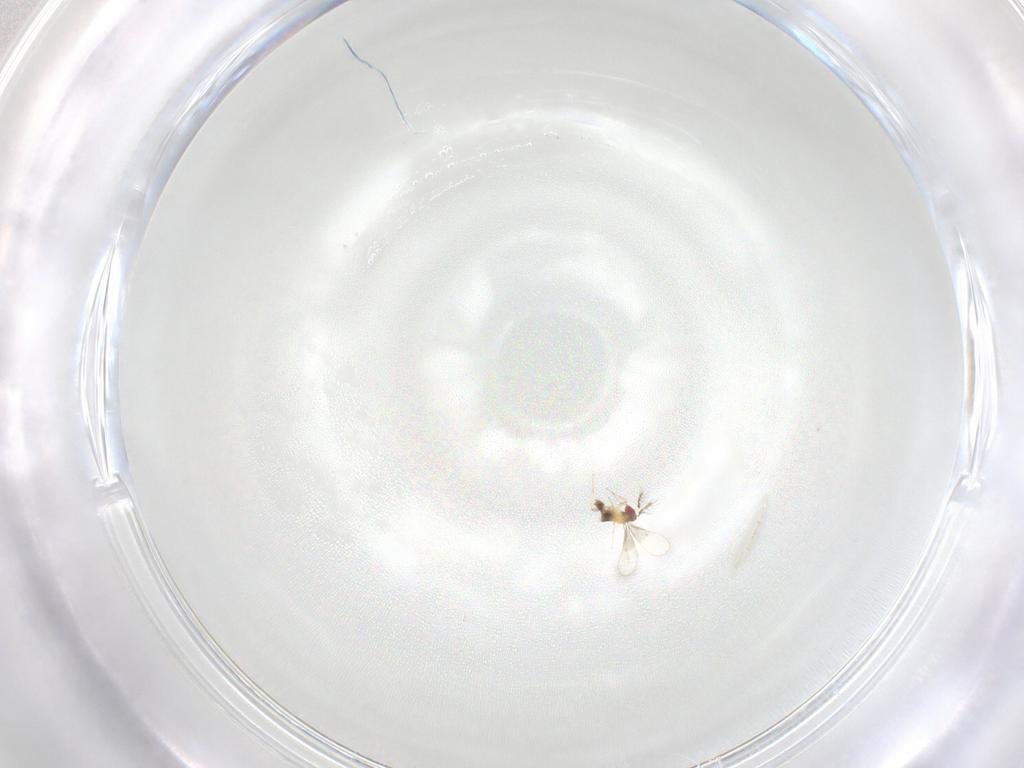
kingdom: Animalia
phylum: Arthropoda
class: Insecta
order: Hymenoptera
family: Trichogrammatidae
